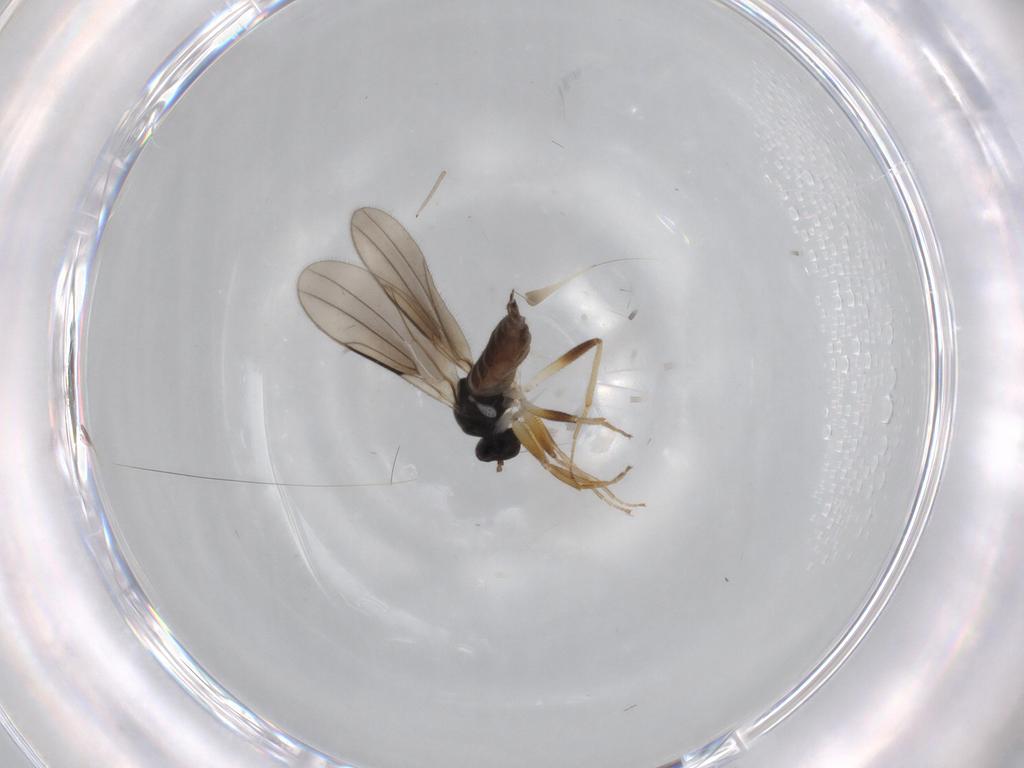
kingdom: Animalia
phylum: Arthropoda
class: Insecta
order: Diptera
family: Hybotidae
